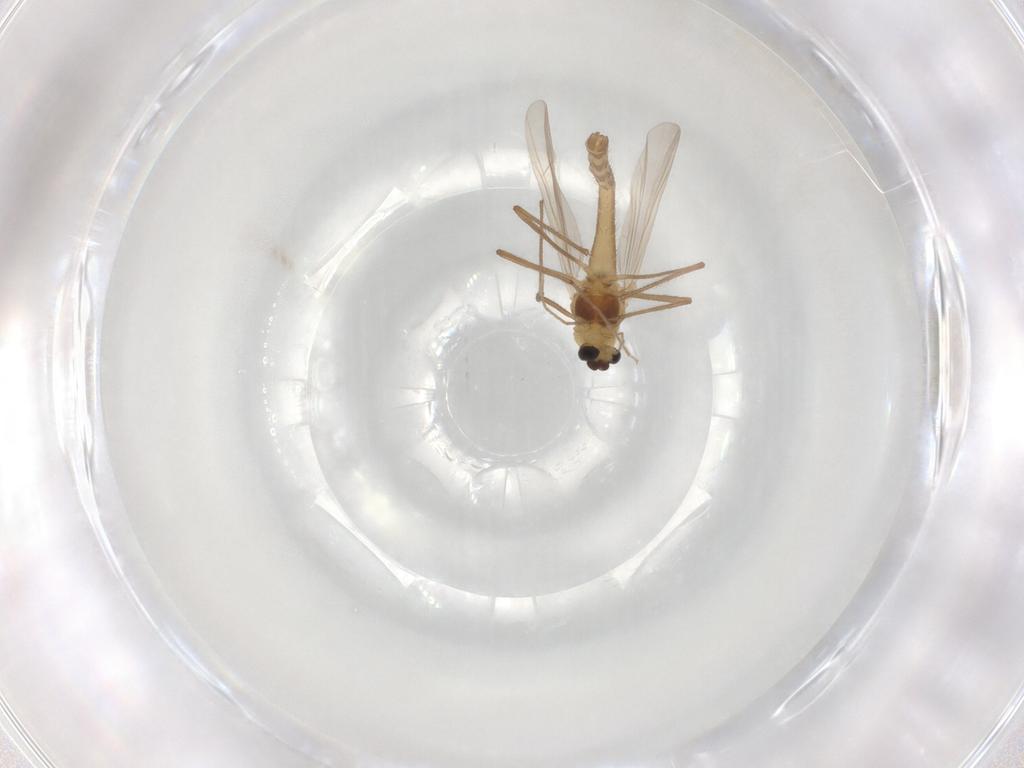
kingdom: Animalia
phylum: Arthropoda
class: Insecta
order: Diptera
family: Chironomidae
